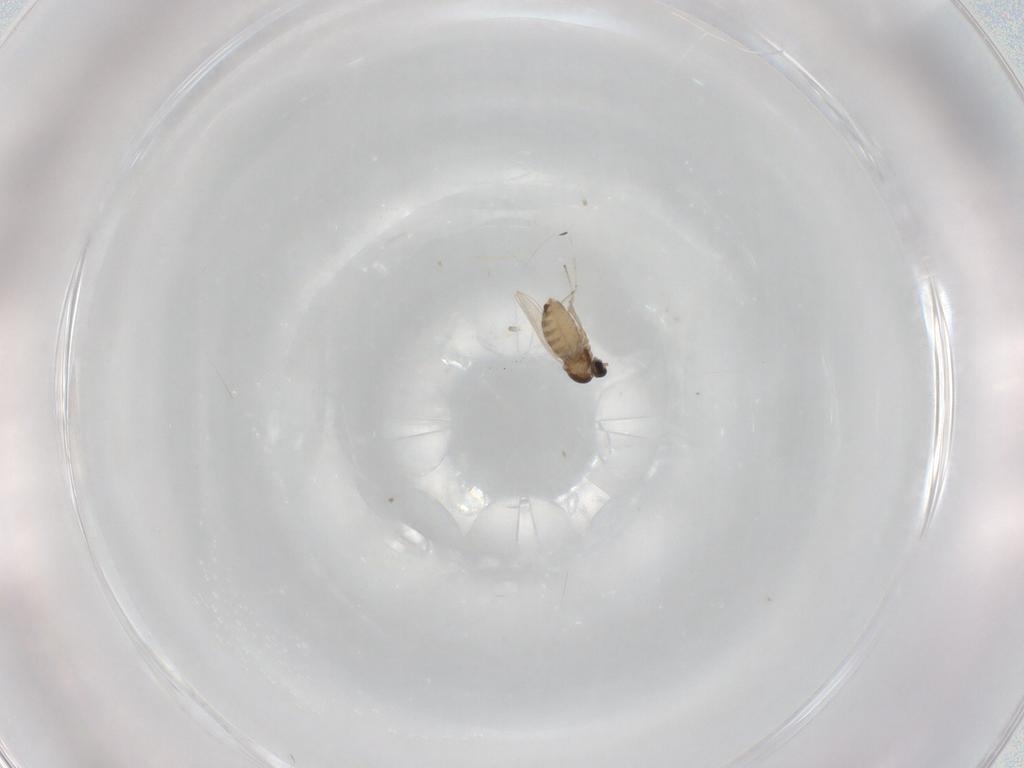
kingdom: Animalia
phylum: Arthropoda
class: Insecta
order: Diptera
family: Cecidomyiidae
